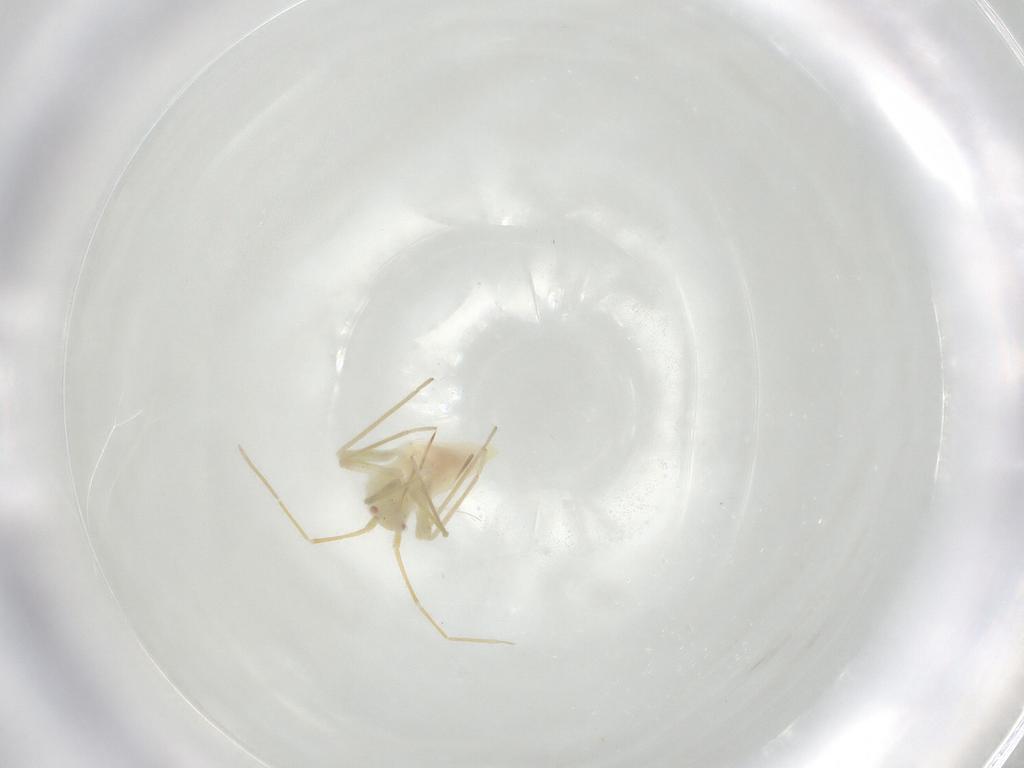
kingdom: Animalia
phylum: Arthropoda
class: Insecta
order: Hemiptera
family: Miridae
